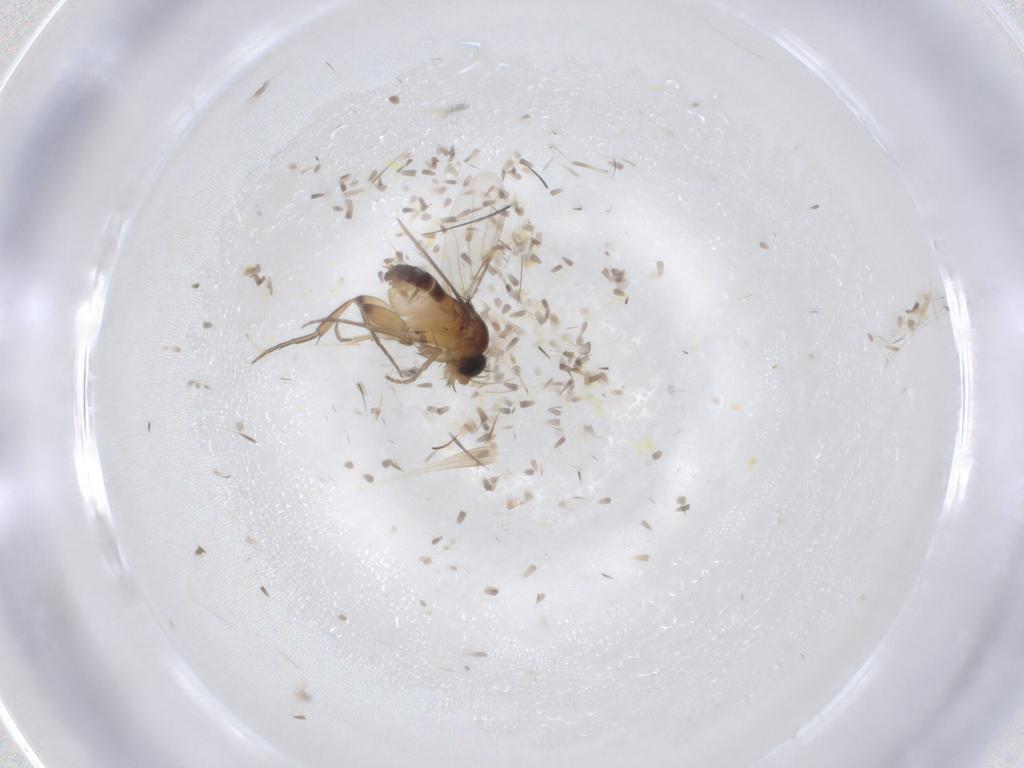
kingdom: Animalia
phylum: Arthropoda
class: Insecta
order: Diptera
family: Phoridae
